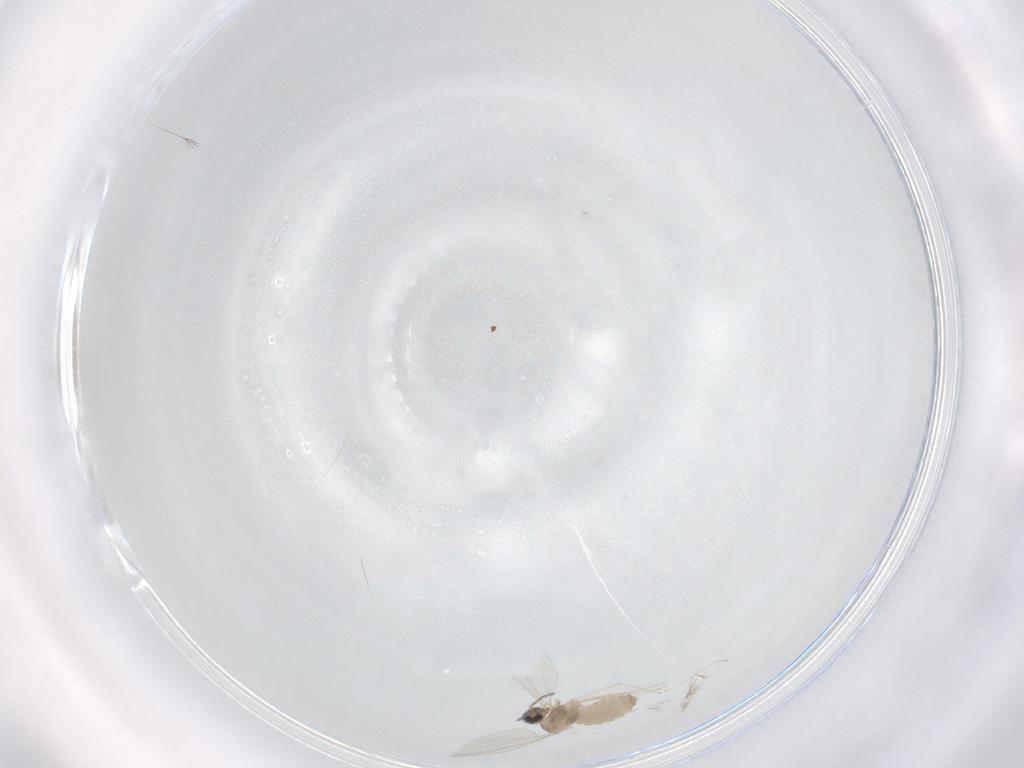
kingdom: Animalia
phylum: Arthropoda
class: Insecta
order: Diptera
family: Cecidomyiidae
